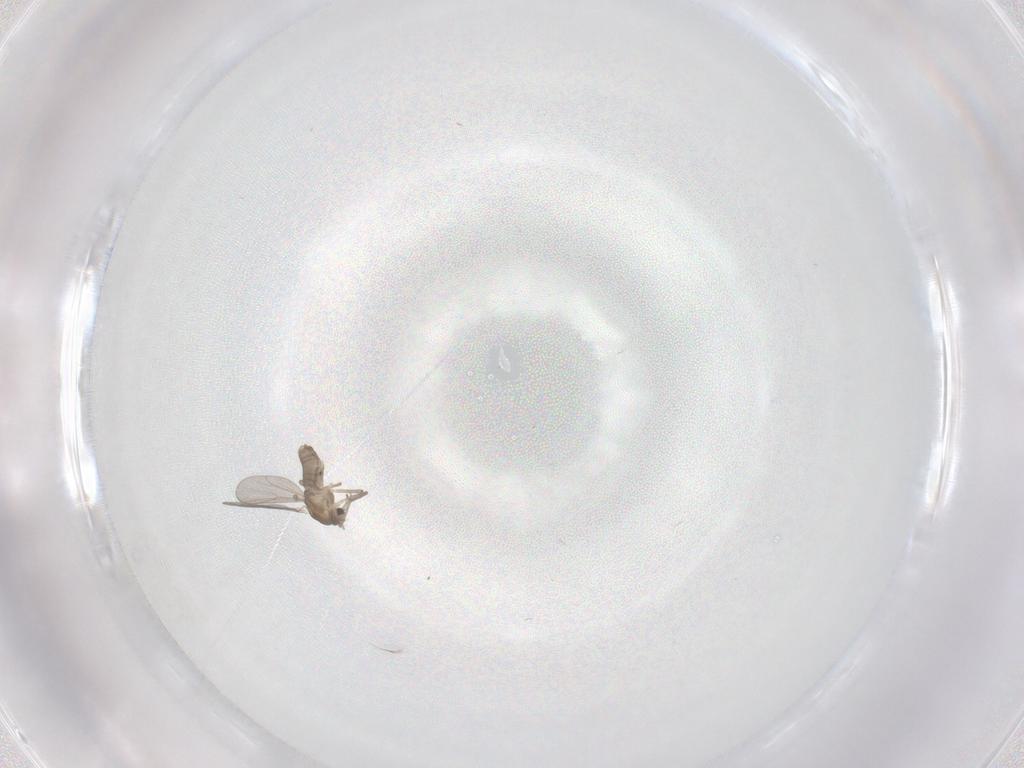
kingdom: Animalia
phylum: Arthropoda
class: Insecta
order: Diptera
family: Chironomidae
